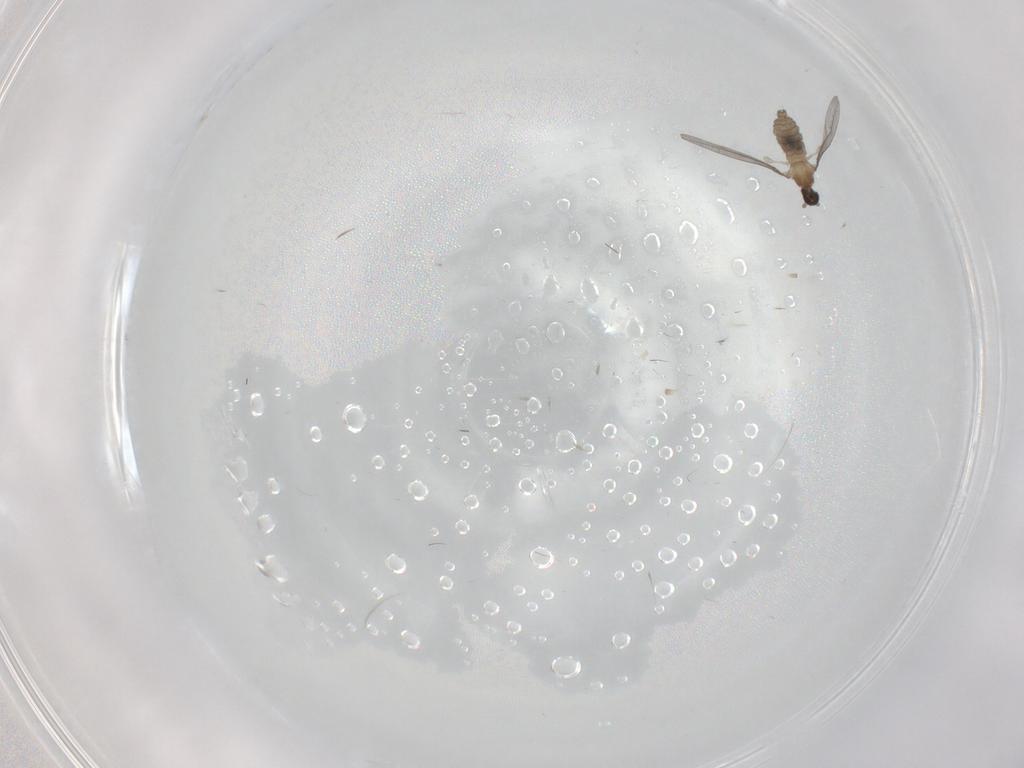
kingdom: Animalia
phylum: Arthropoda
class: Insecta
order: Diptera
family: Cecidomyiidae
